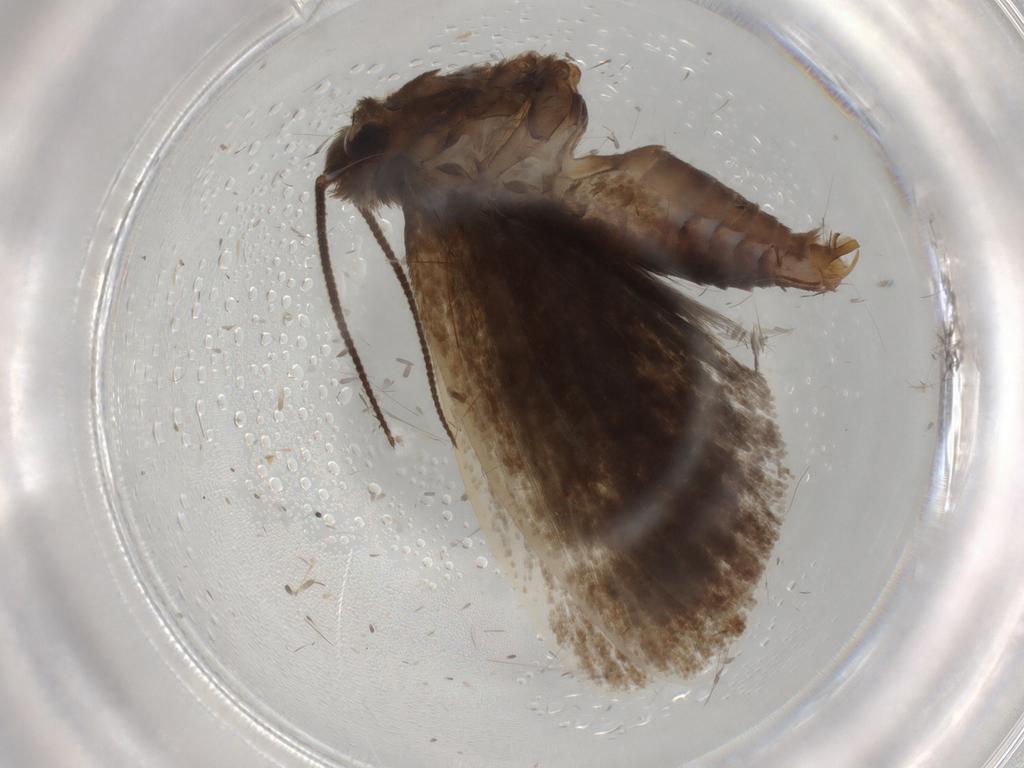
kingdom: Animalia
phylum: Arthropoda
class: Insecta
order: Lepidoptera
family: Tineidae
